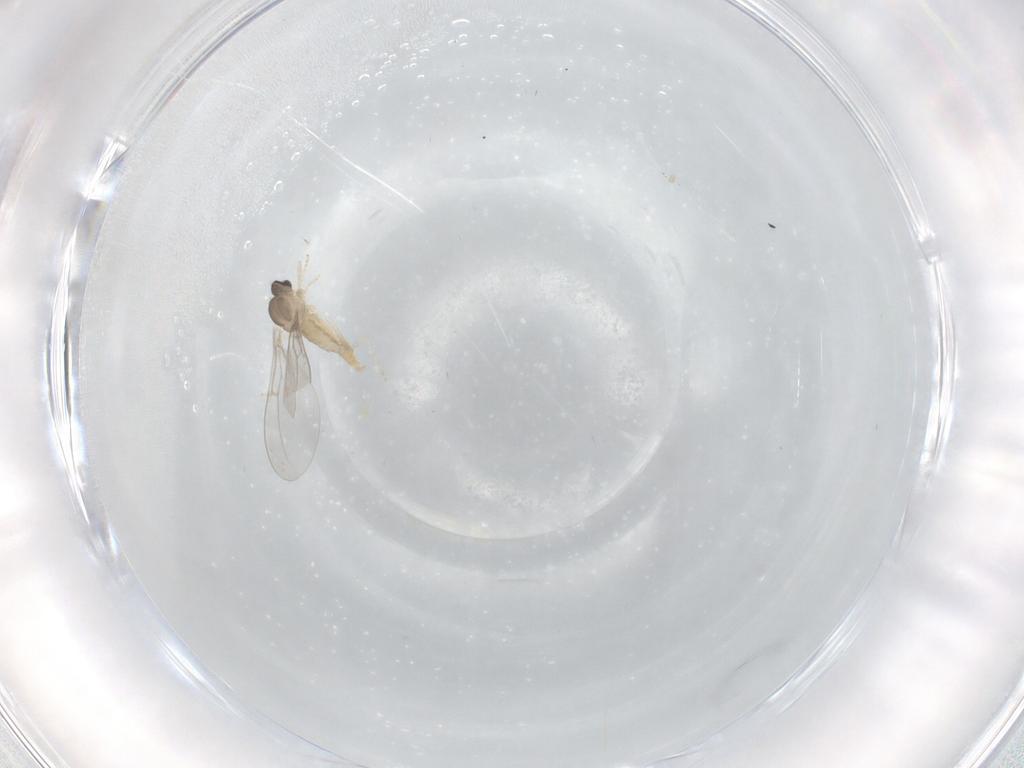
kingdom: Animalia
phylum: Arthropoda
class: Insecta
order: Diptera
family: Cecidomyiidae
